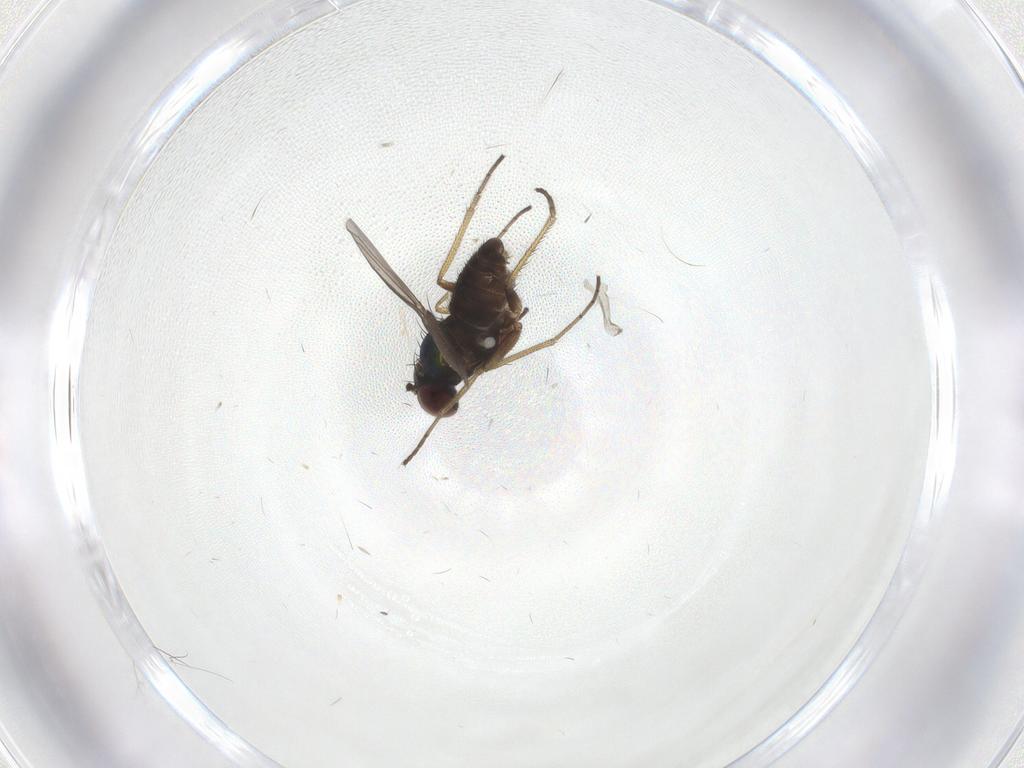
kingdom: Animalia
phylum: Arthropoda
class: Insecta
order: Diptera
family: Dolichopodidae
